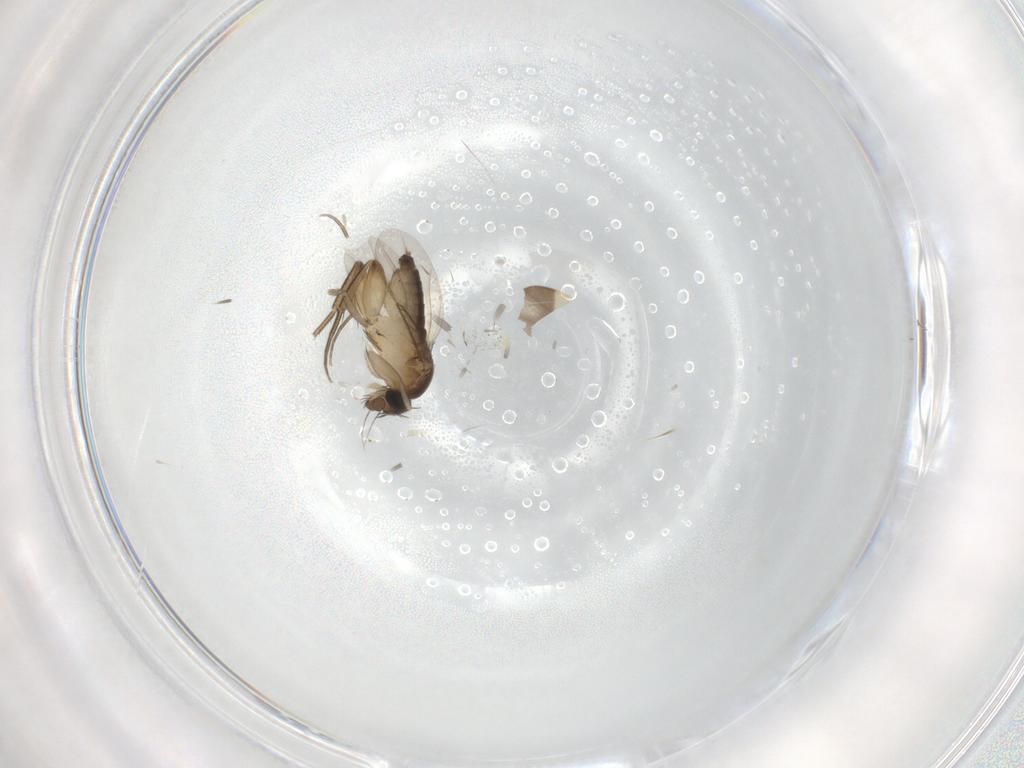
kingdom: Animalia
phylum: Arthropoda
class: Insecta
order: Diptera
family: Phoridae
